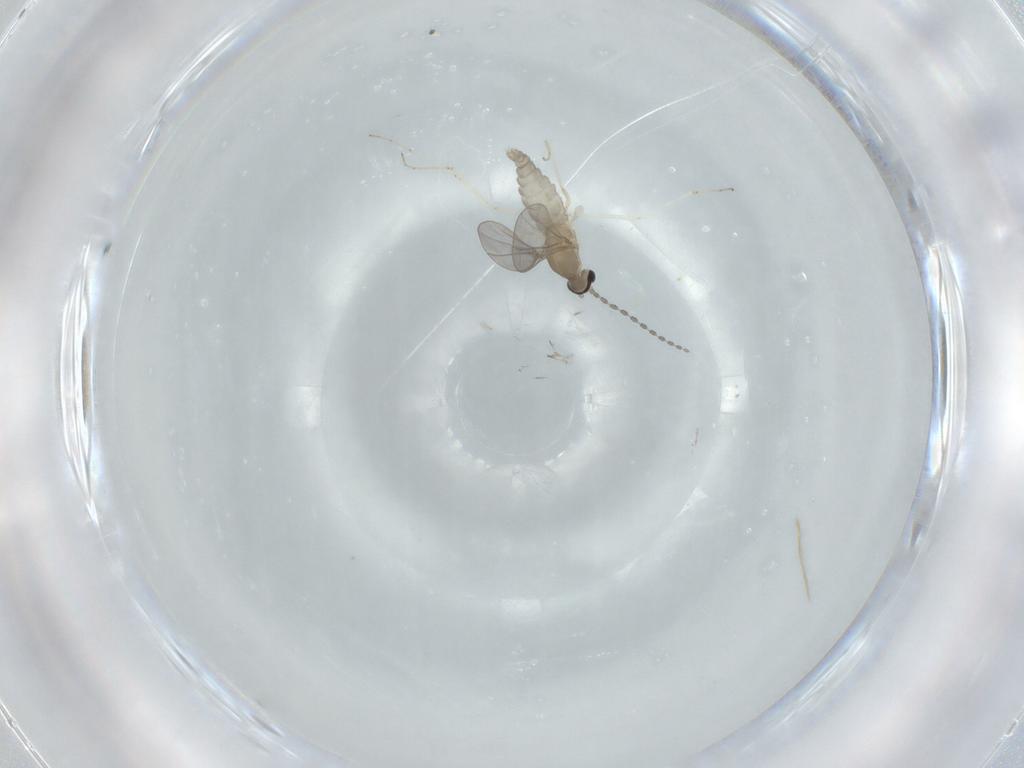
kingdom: Animalia
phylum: Arthropoda
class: Insecta
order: Diptera
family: Cecidomyiidae
